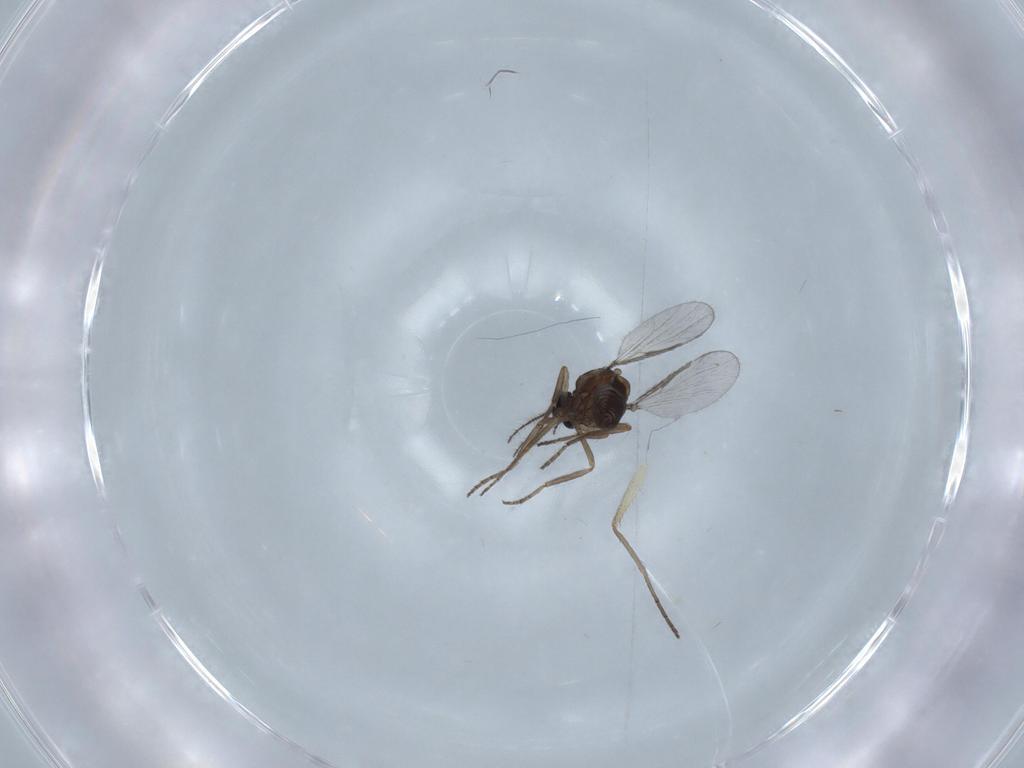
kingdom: Animalia
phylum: Arthropoda
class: Insecta
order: Diptera
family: Dolichopodidae
